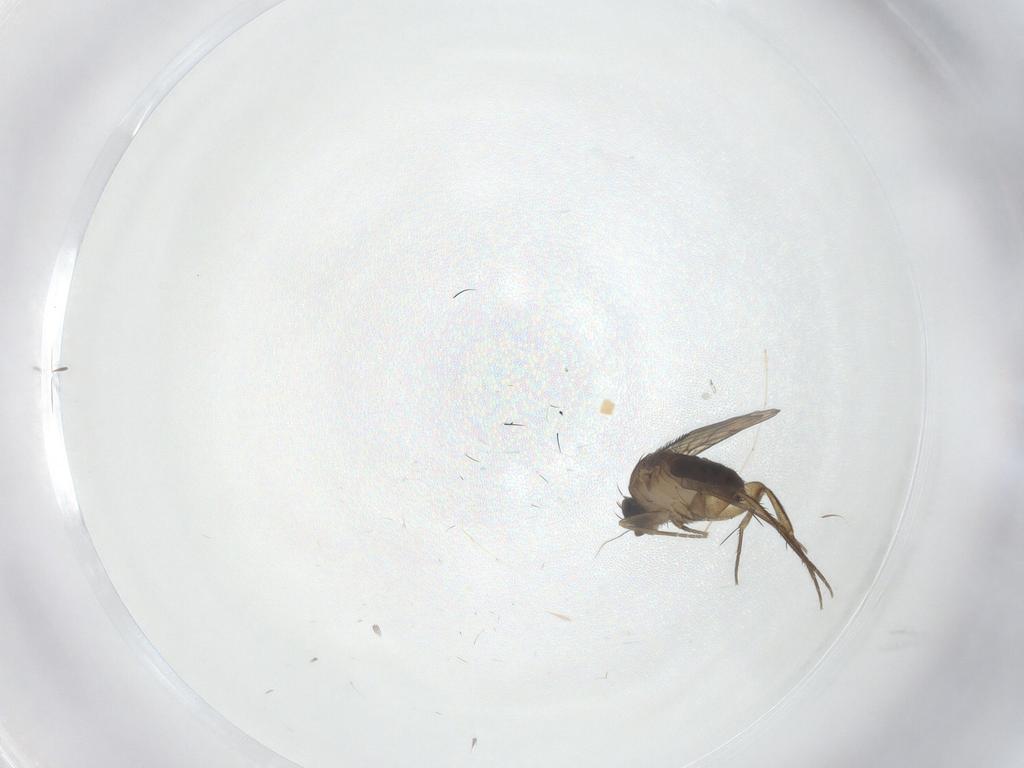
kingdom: Animalia
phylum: Arthropoda
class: Insecta
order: Diptera
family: Phoridae
